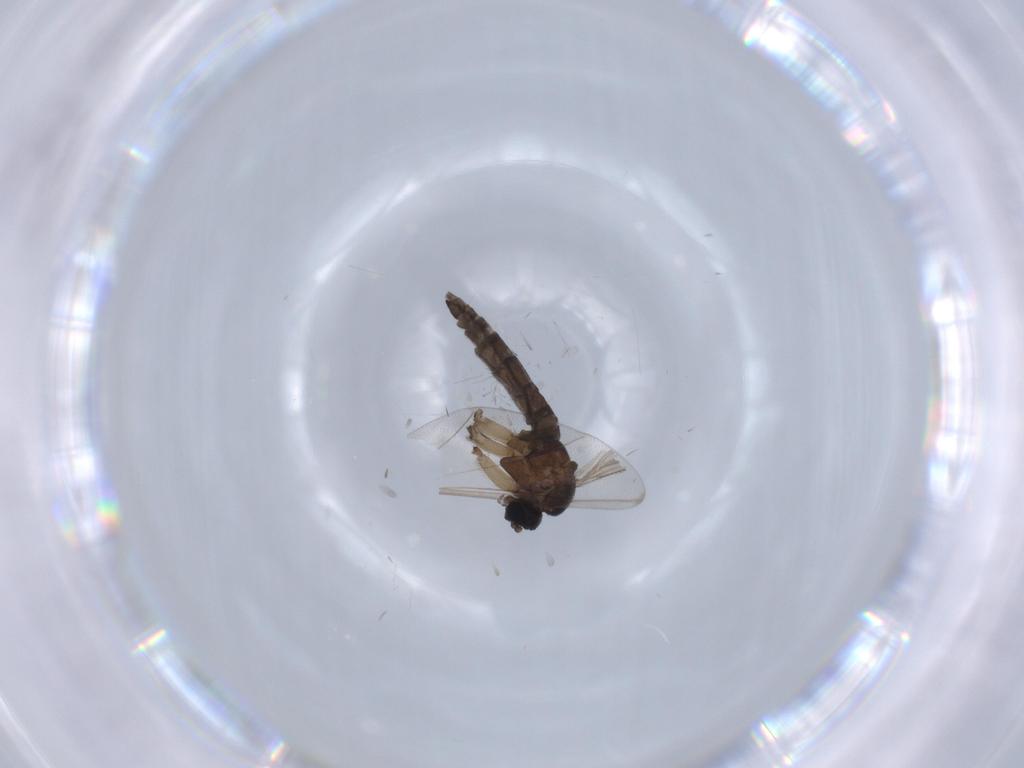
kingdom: Animalia
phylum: Arthropoda
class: Insecta
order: Diptera
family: Sciaridae
